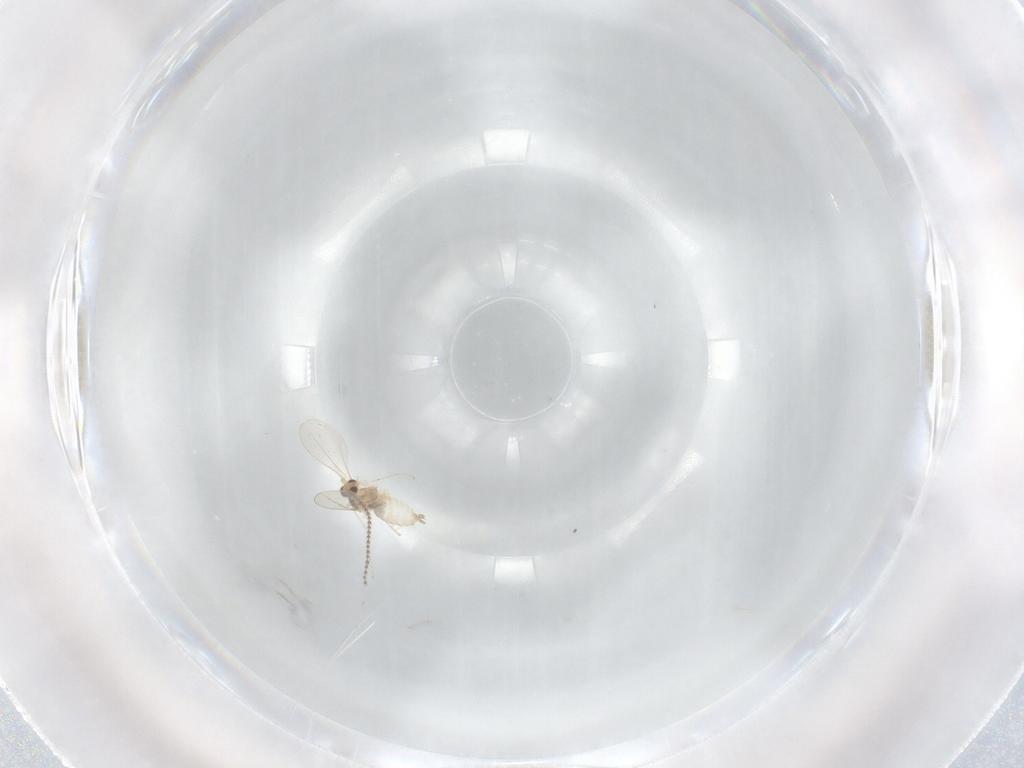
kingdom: Animalia
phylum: Arthropoda
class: Insecta
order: Diptera
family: Cecidomyiidae
